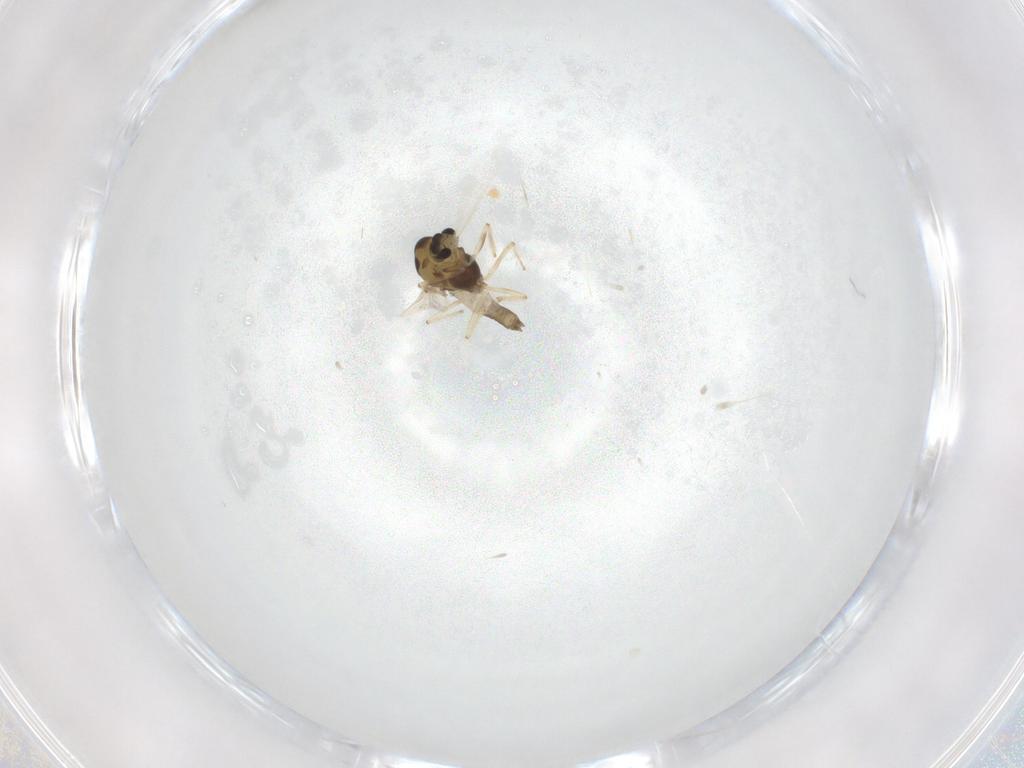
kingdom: Animalia
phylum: Arthropoda
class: Insecta
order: Diptera
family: Chironomidae
